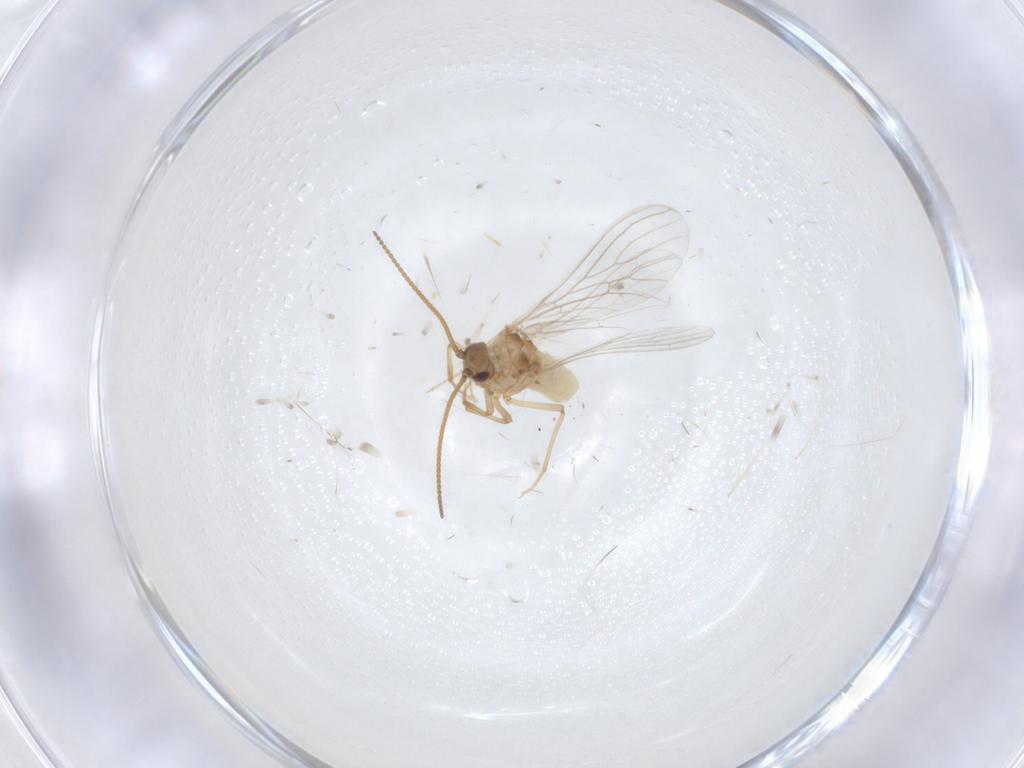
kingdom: Animalia
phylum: Arthropoda
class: Insecta
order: Neuroptera
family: Coniopterygidae
